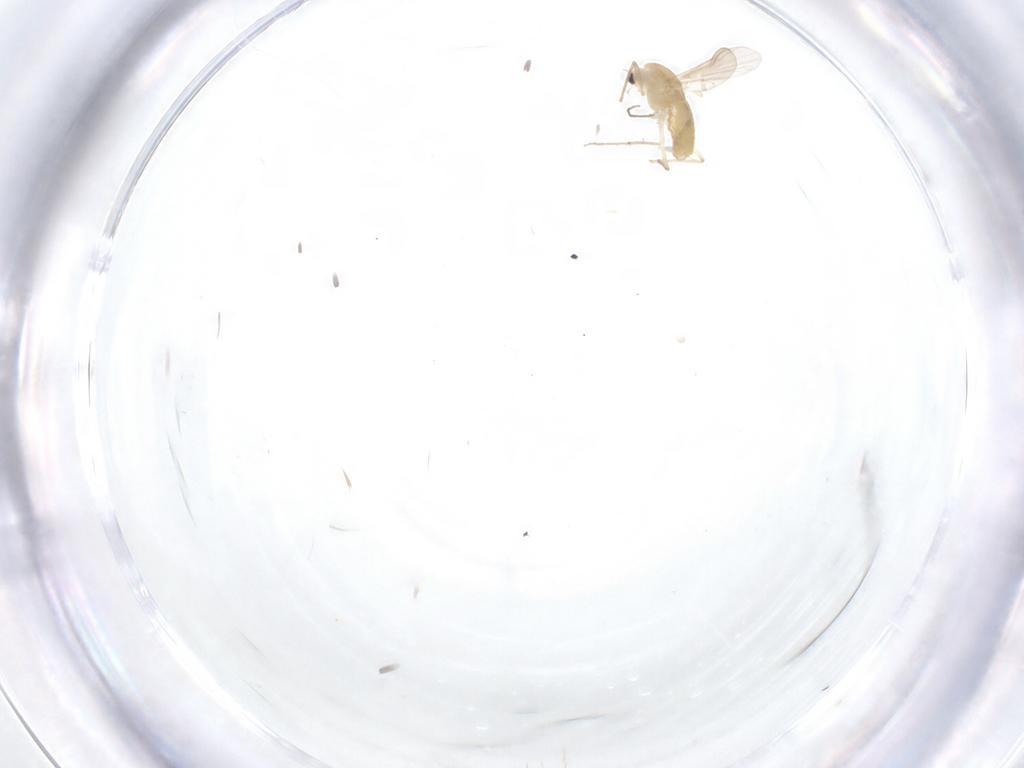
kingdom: Animalia
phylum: Arthropoda
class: Insecta
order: Diptera
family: Chironomidae
